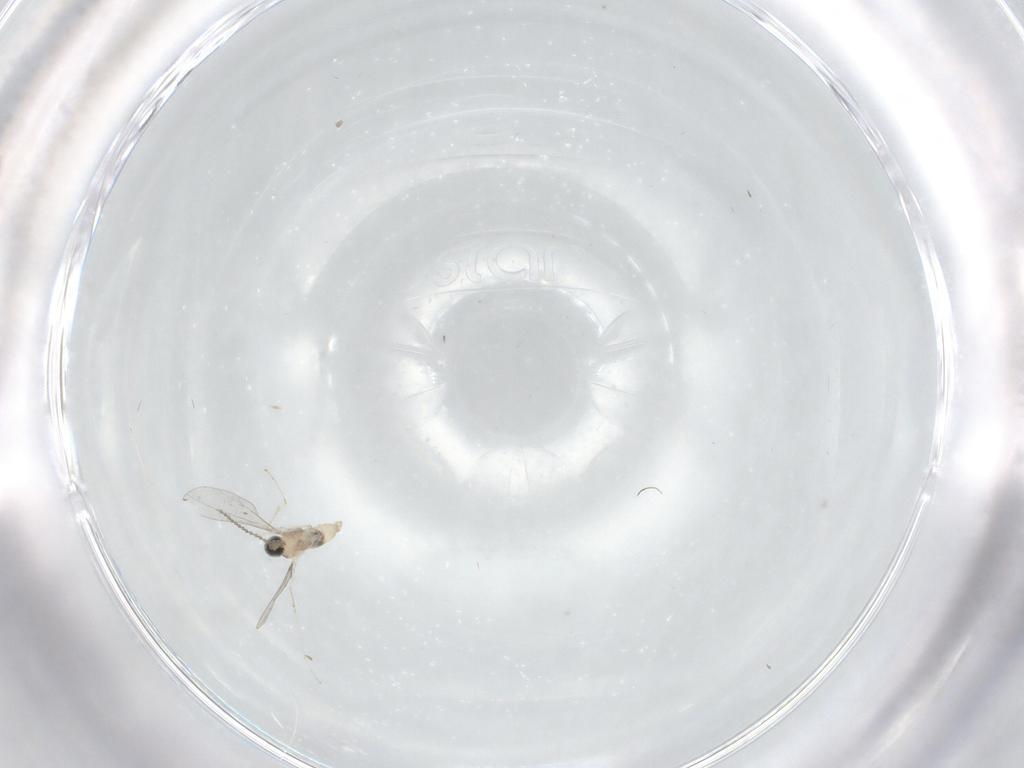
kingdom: Animalia
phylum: Arthropoda
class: Insecta
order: Diptera
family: Cecidomyiidae
